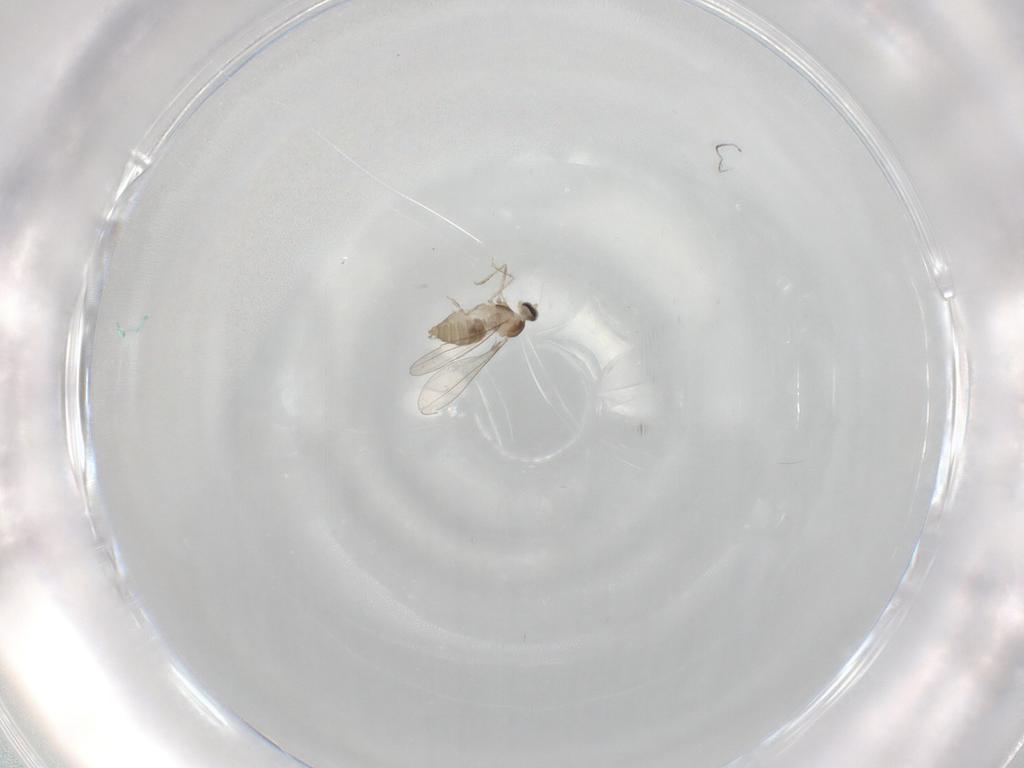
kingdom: Animalia
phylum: Arthropoda
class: Insecta
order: Diptera
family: Cecidomyiidae
